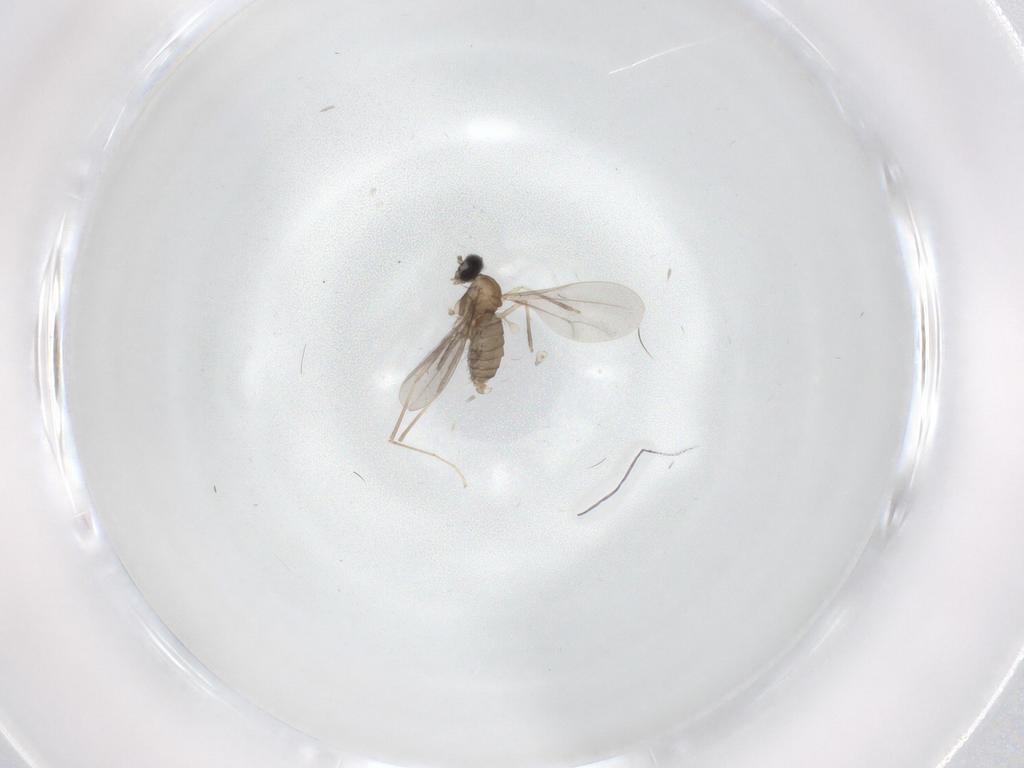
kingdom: Animalia
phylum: Arthropoda
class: Insecta
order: Diptera
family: Cecidomyiidae
